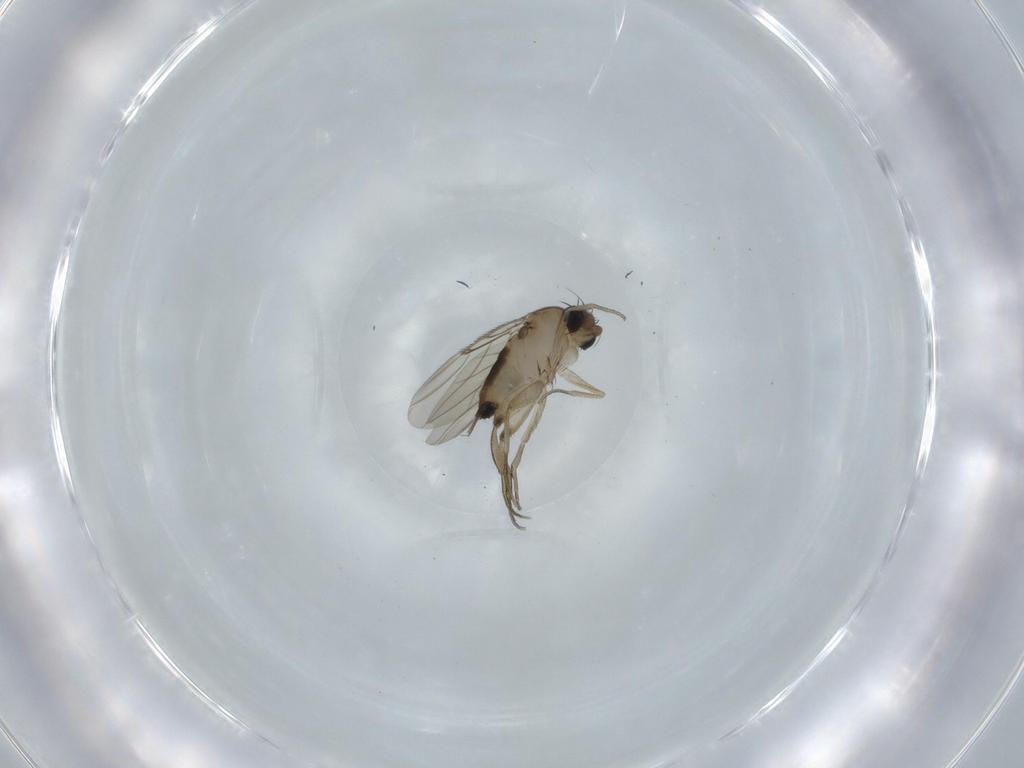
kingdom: Animalia
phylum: Arthropoda
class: Insecta
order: Diptera
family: Phoridae
